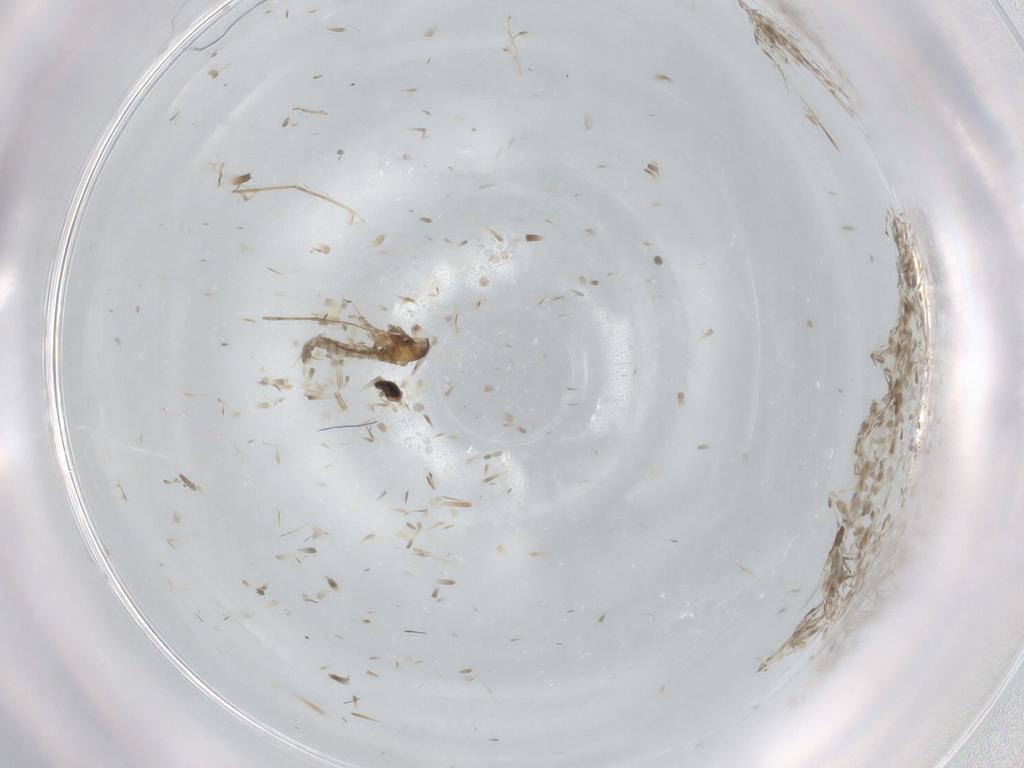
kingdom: Animalia
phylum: Arthropoda
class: Insecta
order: Diptera
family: Cecidomyiidae
